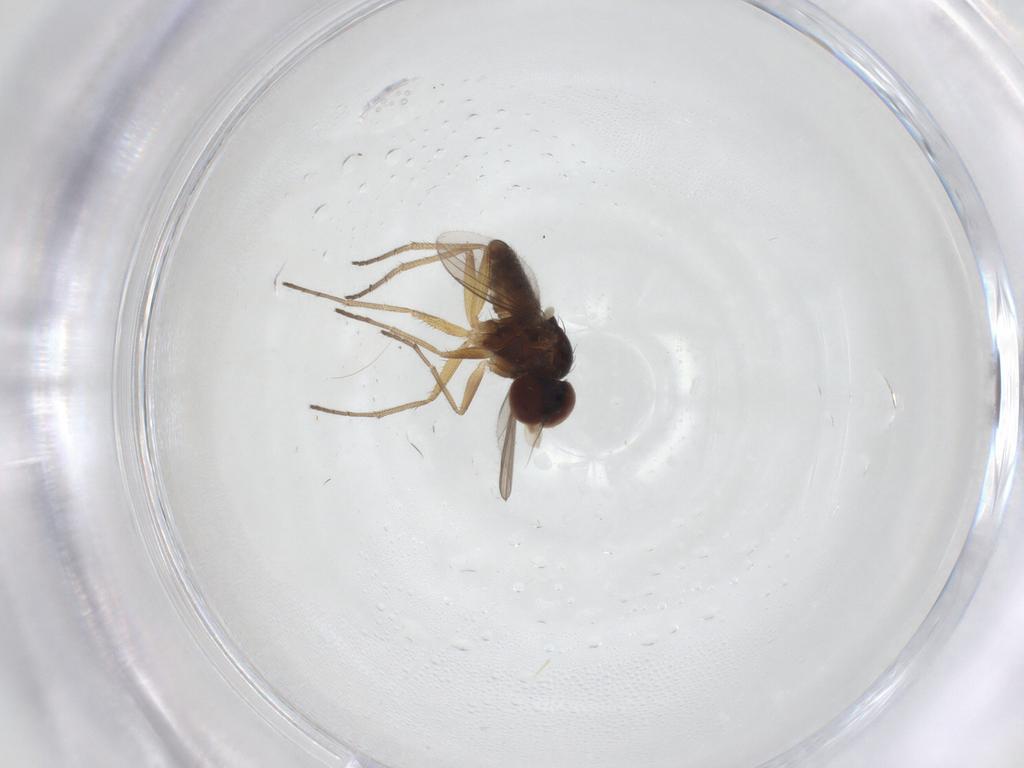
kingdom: Animalia
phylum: Arthropoda
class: Insecta
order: Diptera
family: Dolichopodidae
